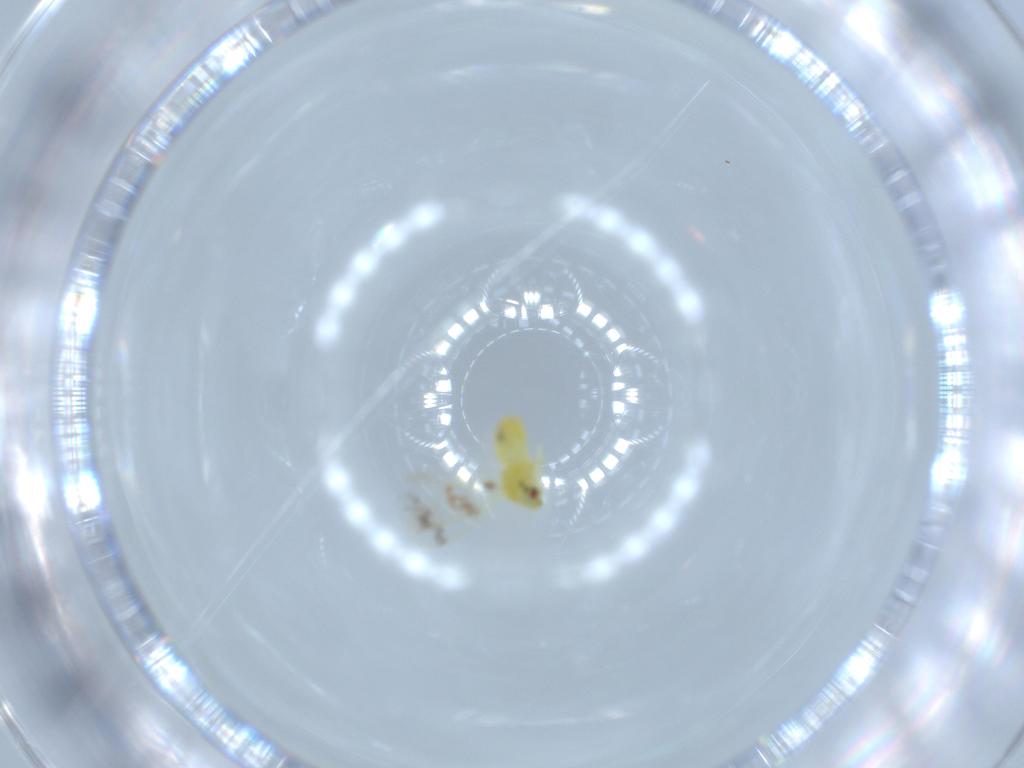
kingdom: Animalia
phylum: Arthropoda
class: Insecta
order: Hemiptera
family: Aleyrodidae
